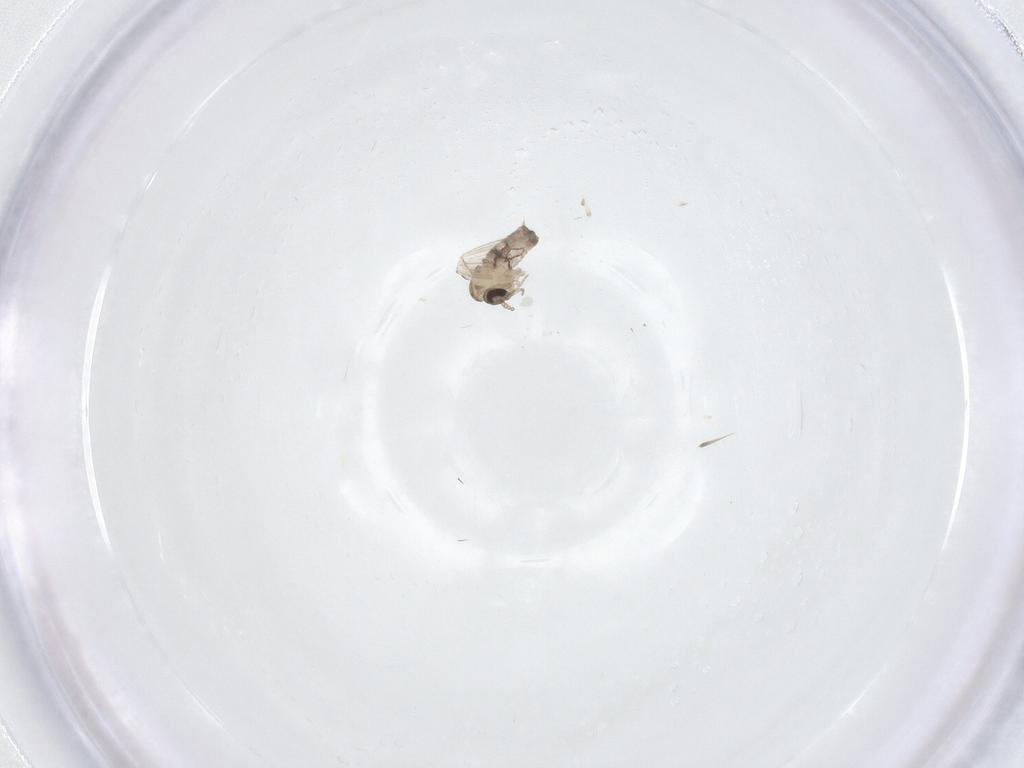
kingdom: Animalia
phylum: Arthropoda
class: Insecta
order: Diptera
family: Psychodidae
